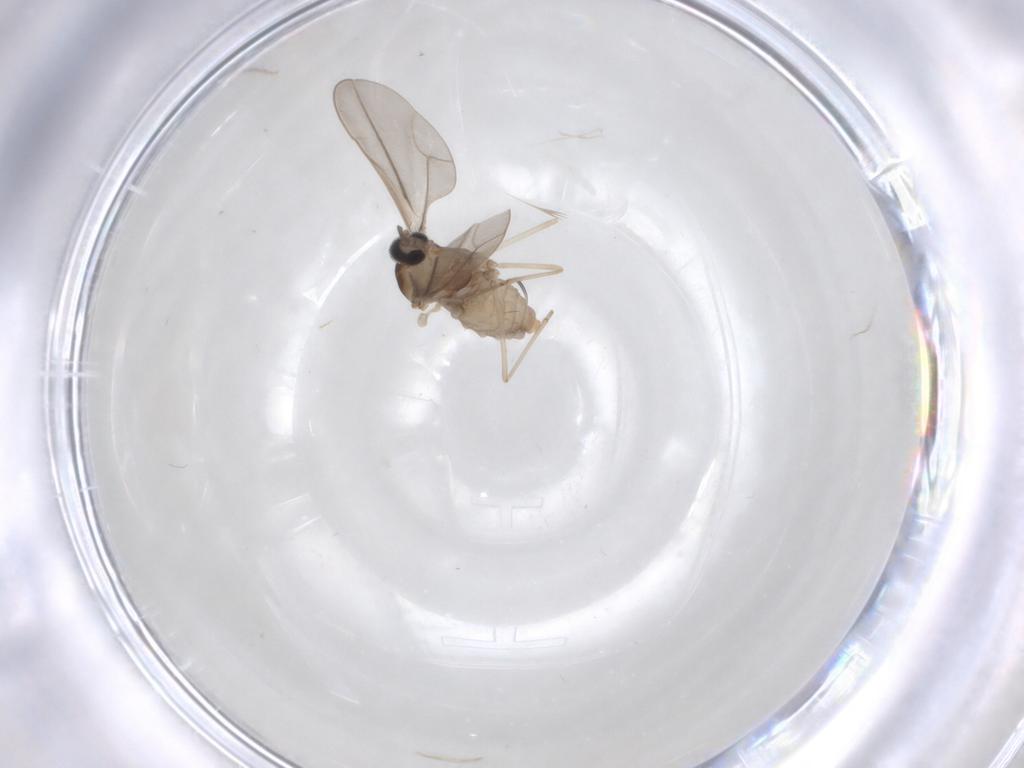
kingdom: Animalia
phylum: Arthropoda
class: Insecta
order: Diptera
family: Cecidomyiidae
